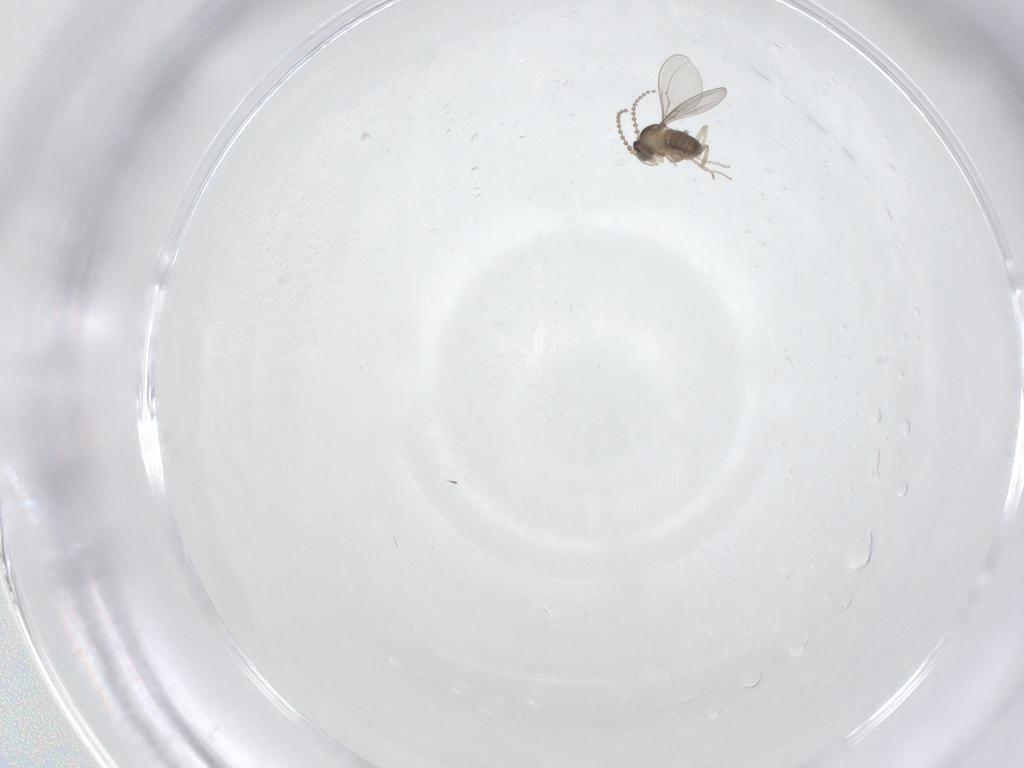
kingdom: Animalia
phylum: Arthropoda
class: Insecta
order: Diptera
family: Cecidomyiidae
